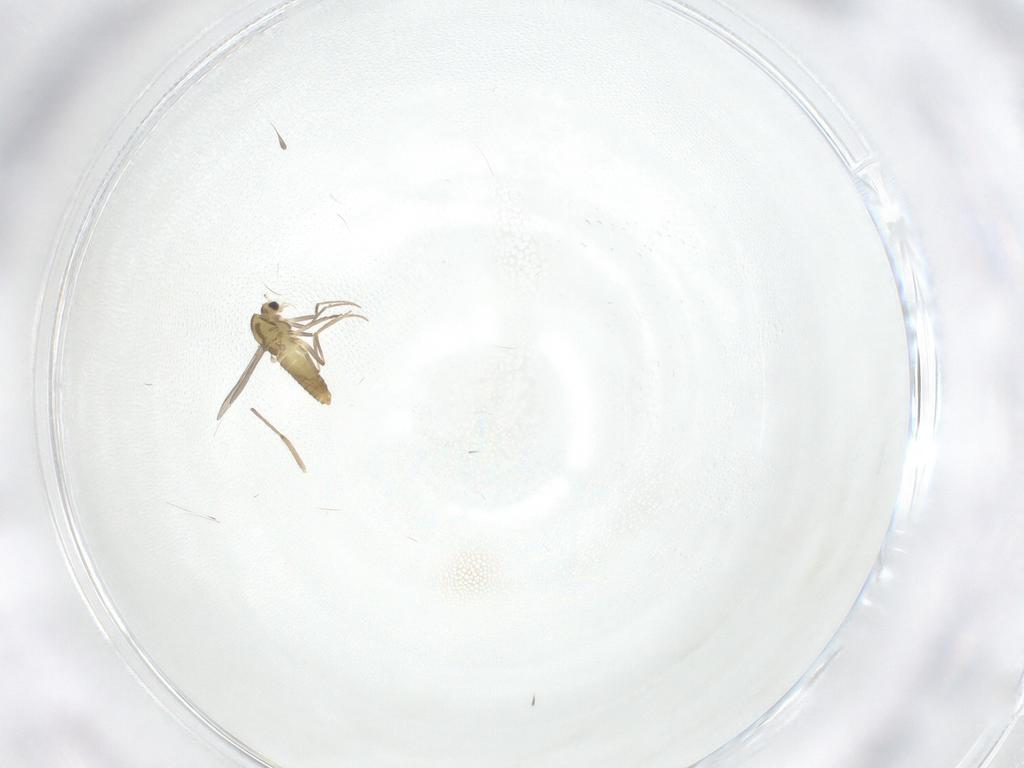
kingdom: Animalia
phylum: Arthropoda
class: Insecta
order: Diptera
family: Chironomidae
